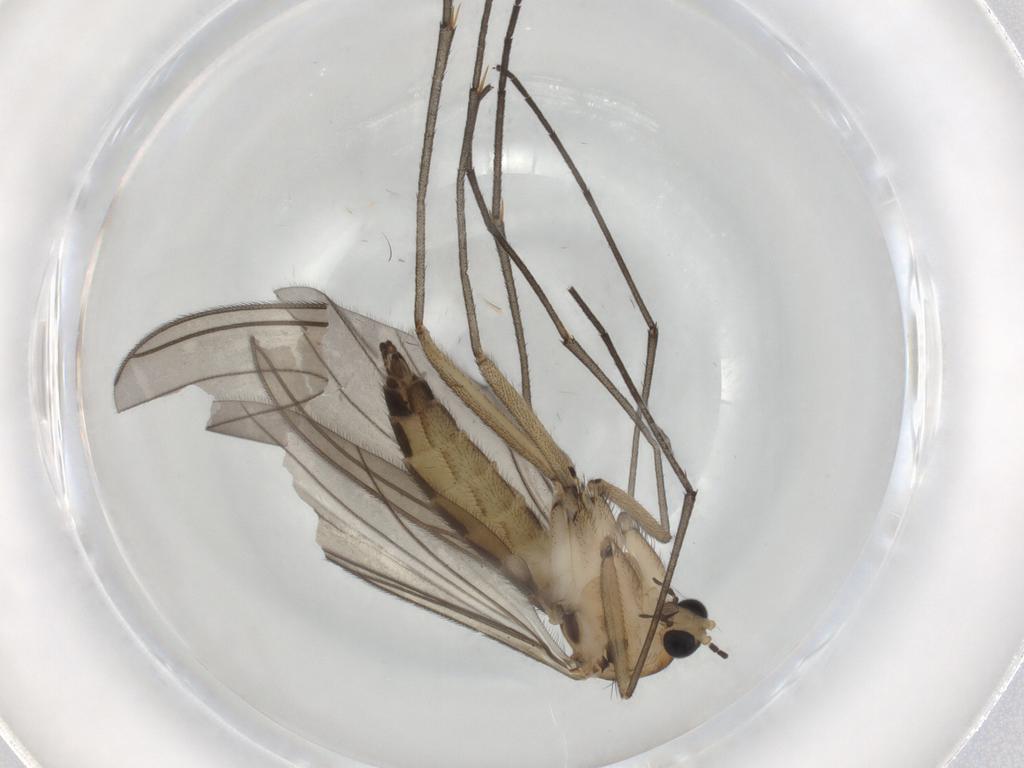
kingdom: Animalia
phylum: Arthropoda
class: Insecta
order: Diptera
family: Sciaridae
